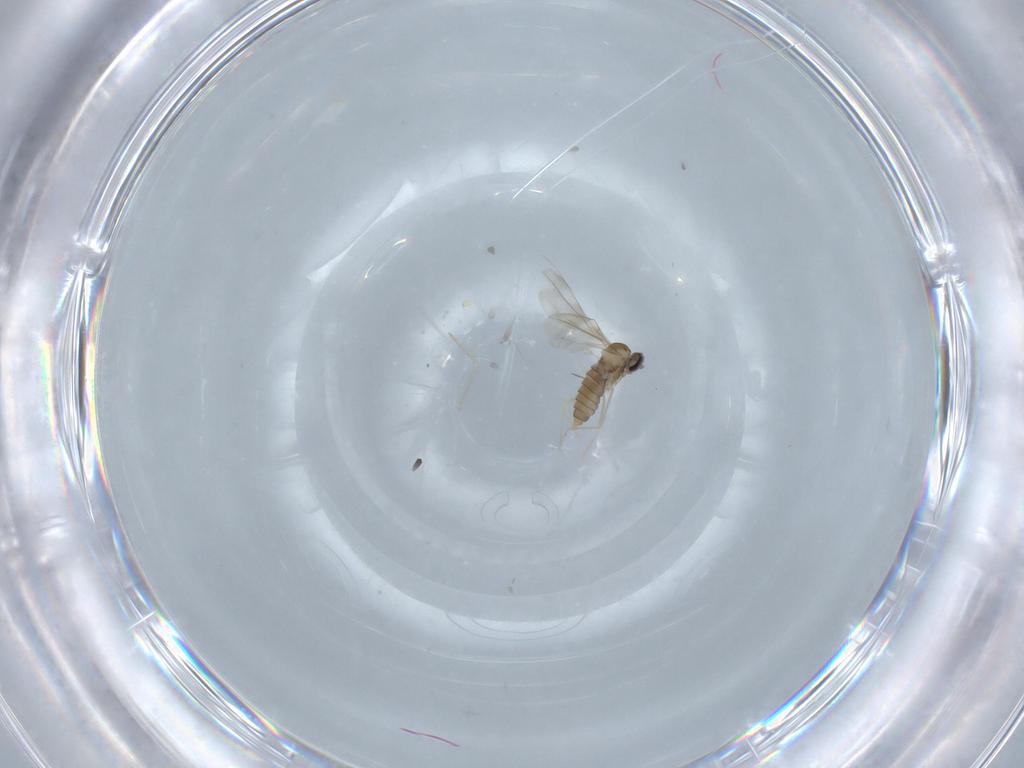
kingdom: Animalia
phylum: Arthropoda
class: Insecta
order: Diptera
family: Cecidomyiidae
